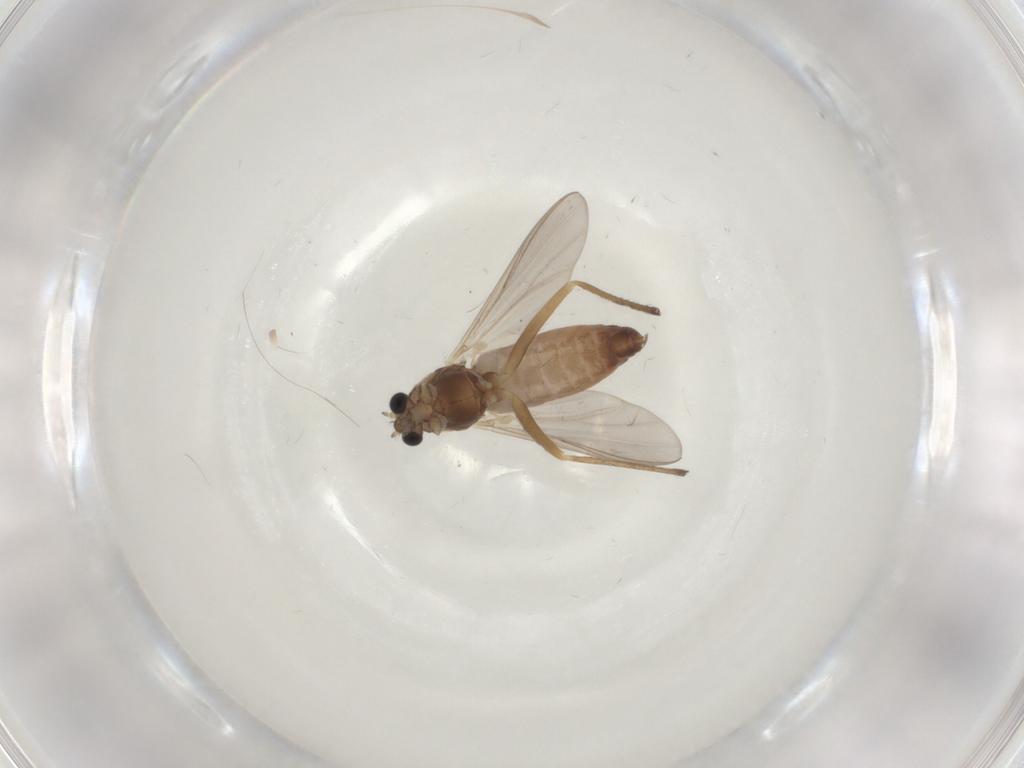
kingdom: Animalia
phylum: Arthropoda
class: Insecta
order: Diptera
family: Chironomidae
